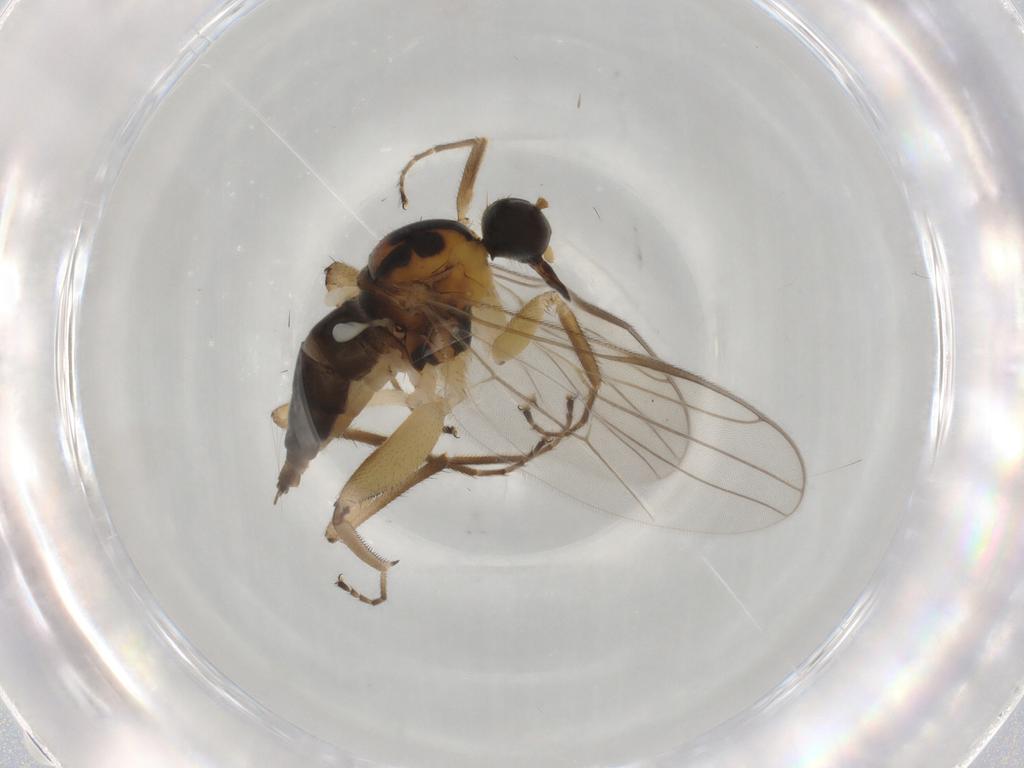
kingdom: Animalia
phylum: Arthropoda
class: Insecta
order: Diptera
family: Hybotidae
